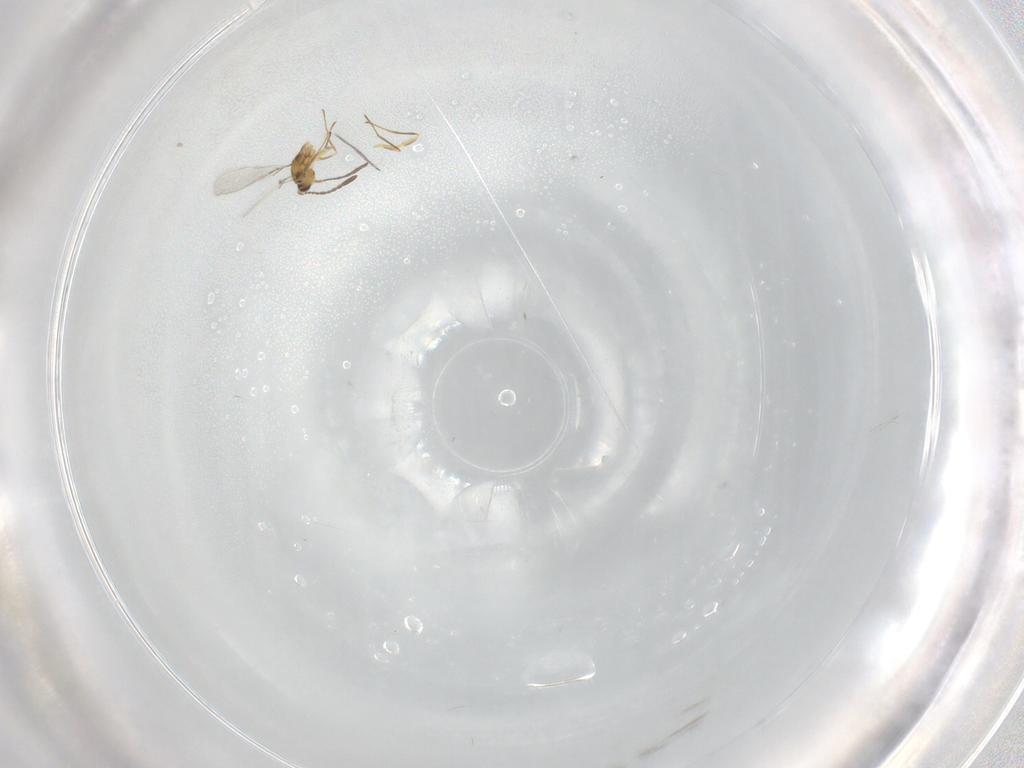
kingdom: Animalia
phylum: Arthropoda
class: Insecta
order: Hymenoptera
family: Mymaridae
